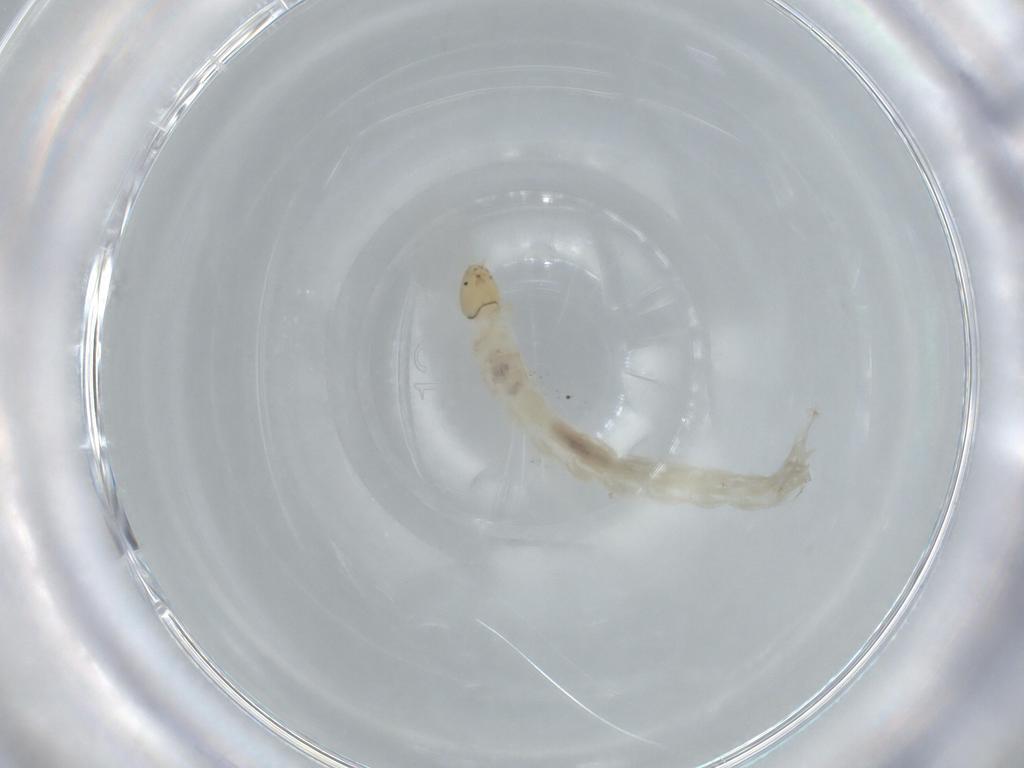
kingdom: Animalia
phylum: Arthropoda
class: Insecta
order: Diptera
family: Chironomidae
